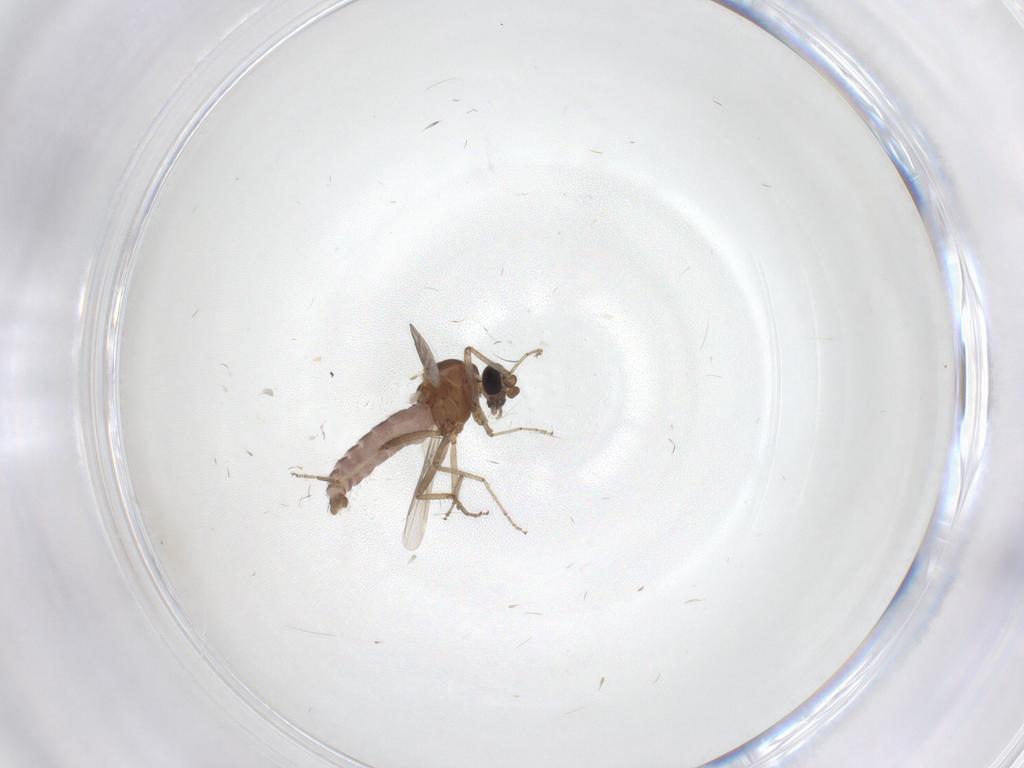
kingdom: Animalia
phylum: Arthropoda
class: Insecta
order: Diptera
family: Ceratopogonidae
